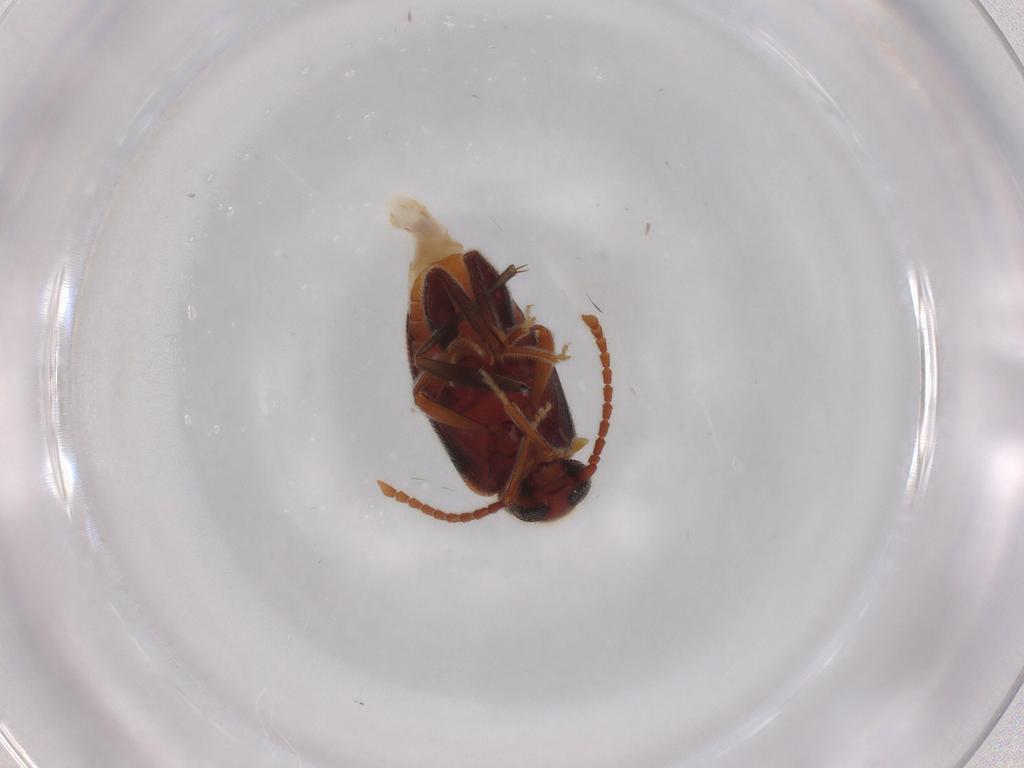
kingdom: Animalia
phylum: Arthropoda
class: Insecta
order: Coleoptera
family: Aderidae
